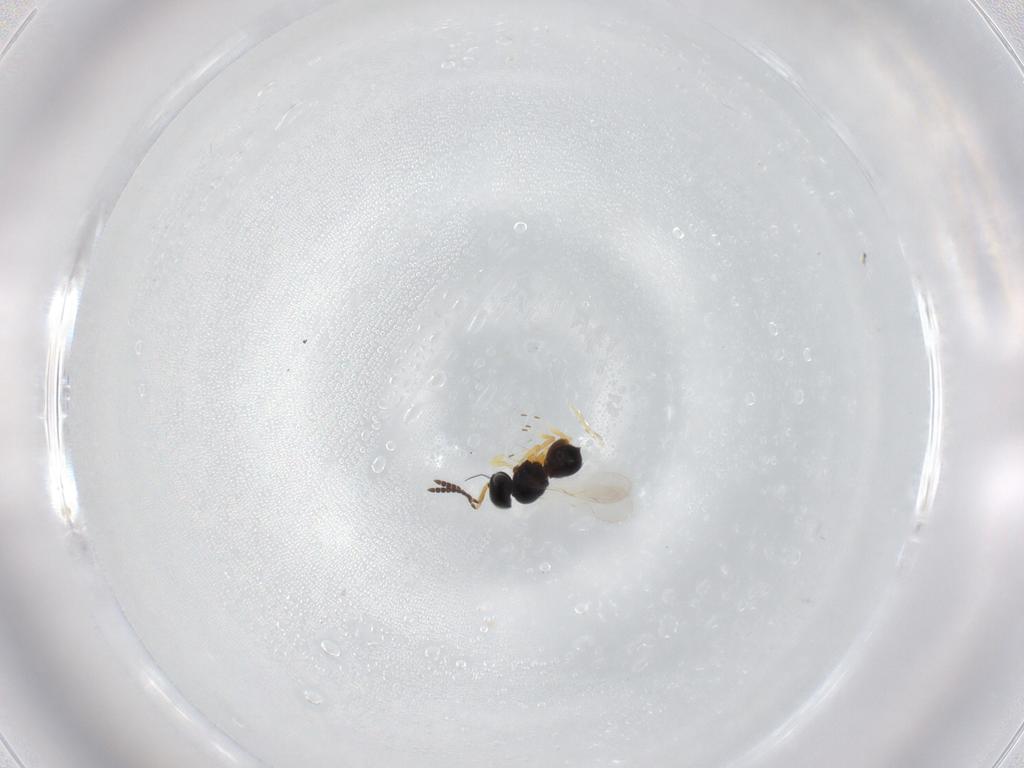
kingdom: Animalia
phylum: Arthropoda
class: Insecta
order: Hymenoptera
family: Scelionidae
